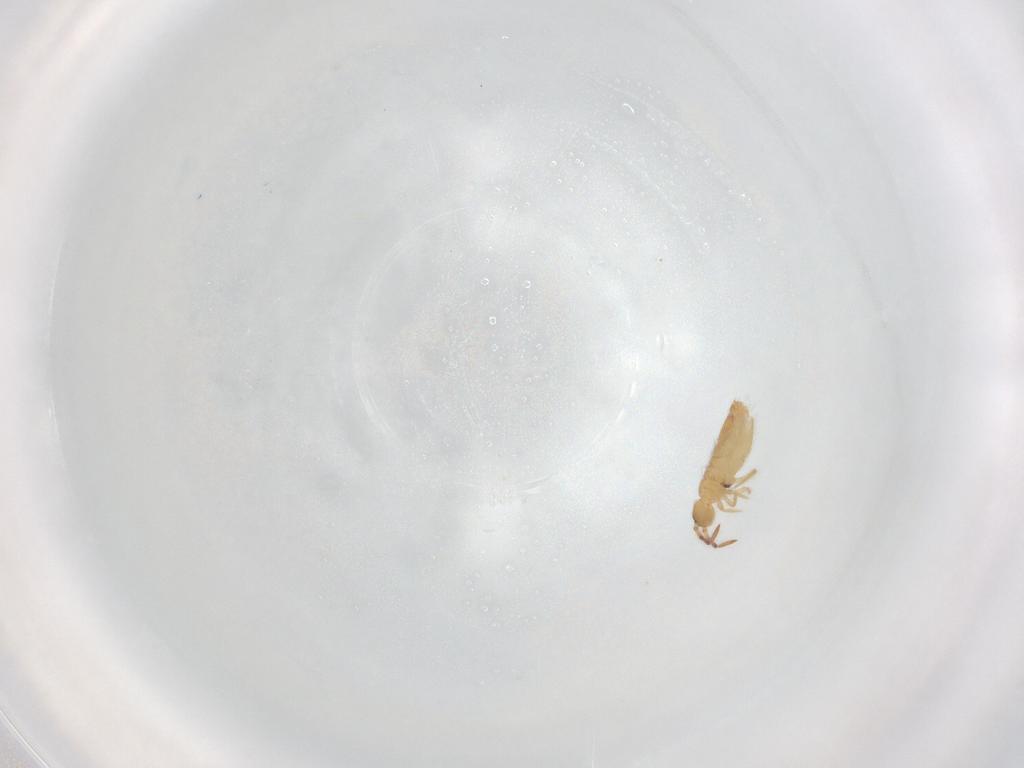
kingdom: Animalia
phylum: Arthropoda
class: Collembola
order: Entomobryomorpha
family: Entomobryidae
